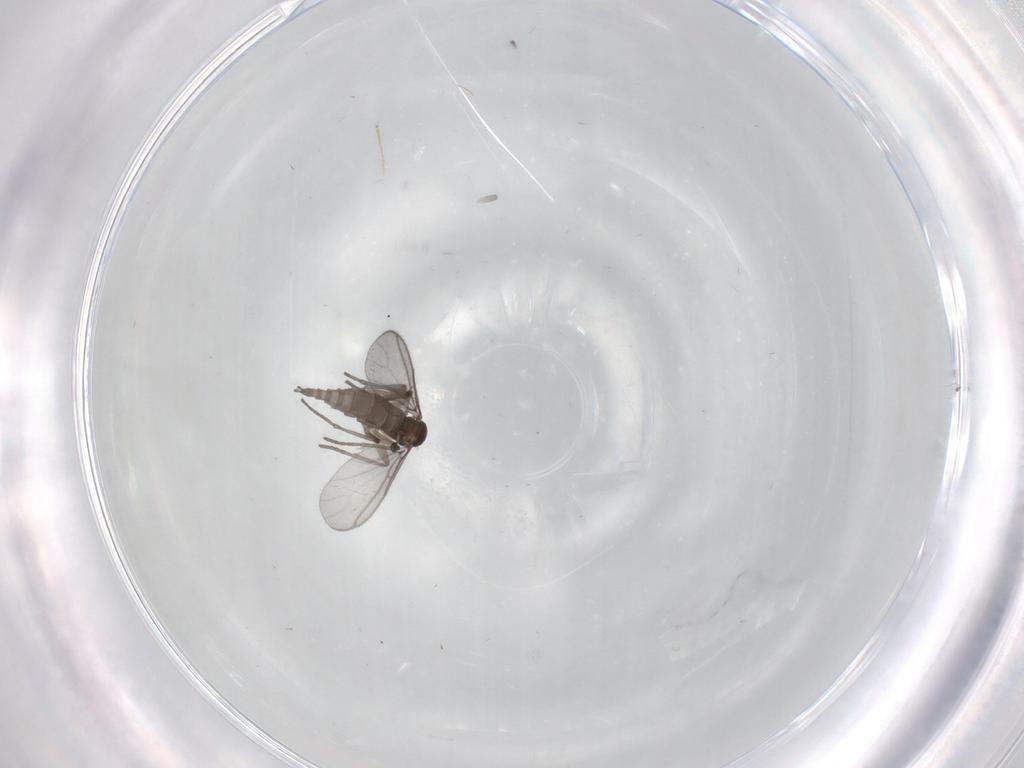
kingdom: Animalia
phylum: Arthropoda
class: Insecta
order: Diptera
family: Sciaridae
